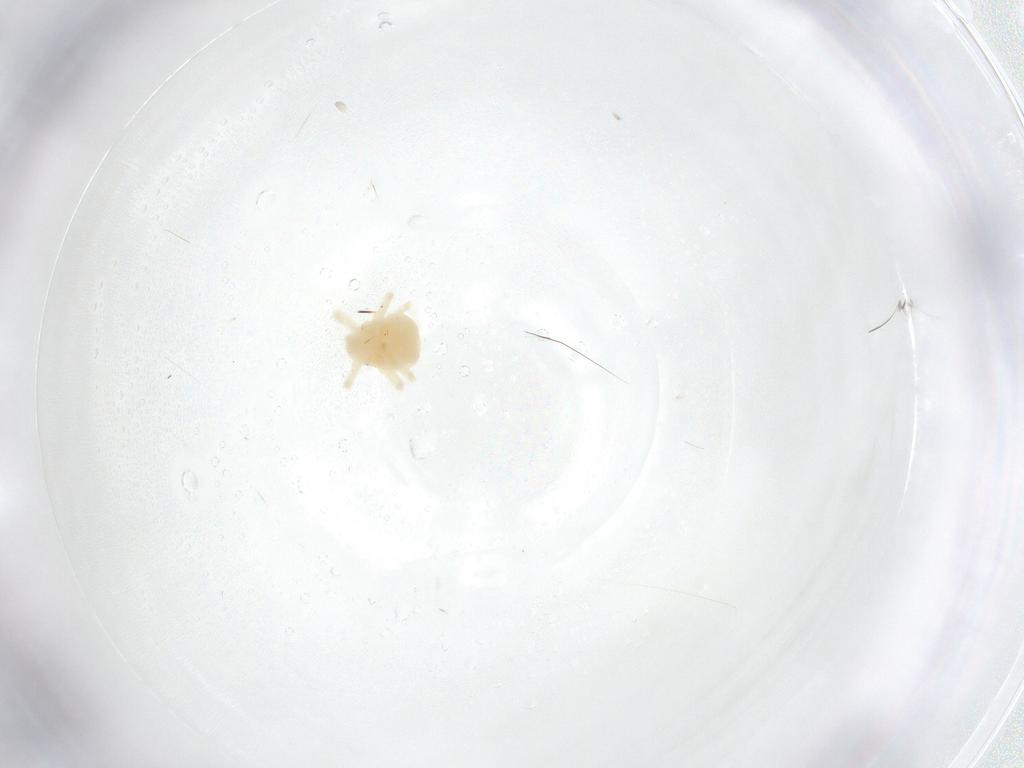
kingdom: Animalia
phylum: Arthropoda
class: Arachnida
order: Trombidiformes
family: Anystidae
